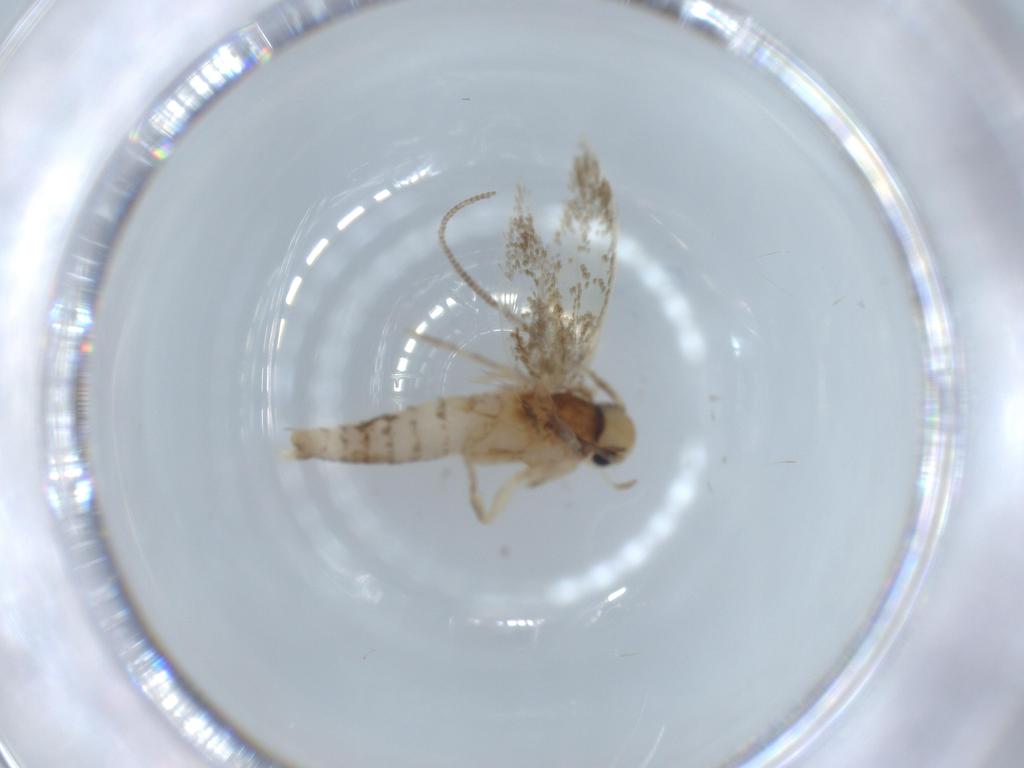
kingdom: Animalia
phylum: Arthropoda
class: Insecta
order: Lepidoptera
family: Tineidae
